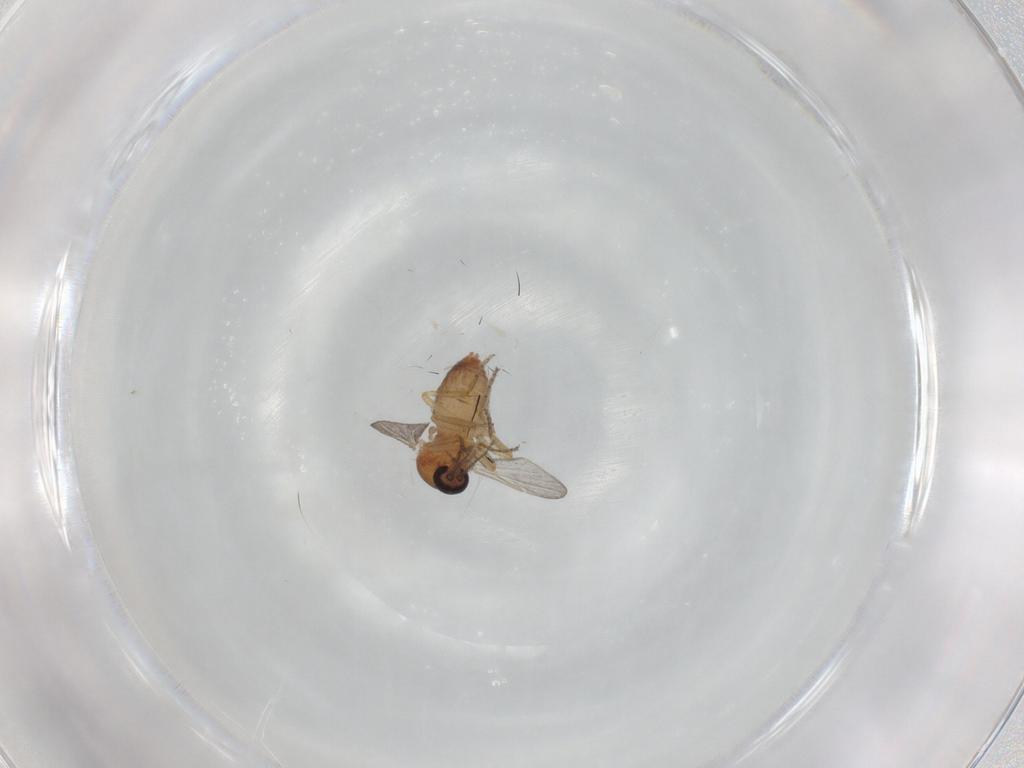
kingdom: Animalia
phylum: Arthropoda
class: Insecta
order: Diptera
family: Ceratopogonidae
